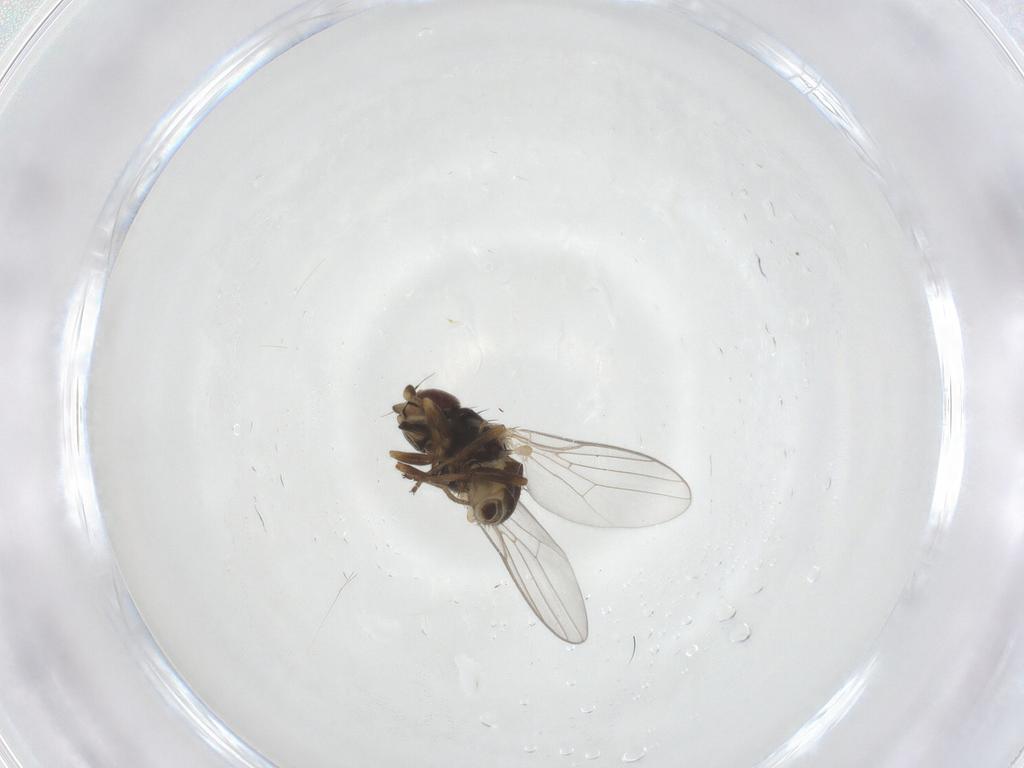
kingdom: Animalia
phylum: Arthropoda
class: Insecta
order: Diptera
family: Chloropidae
